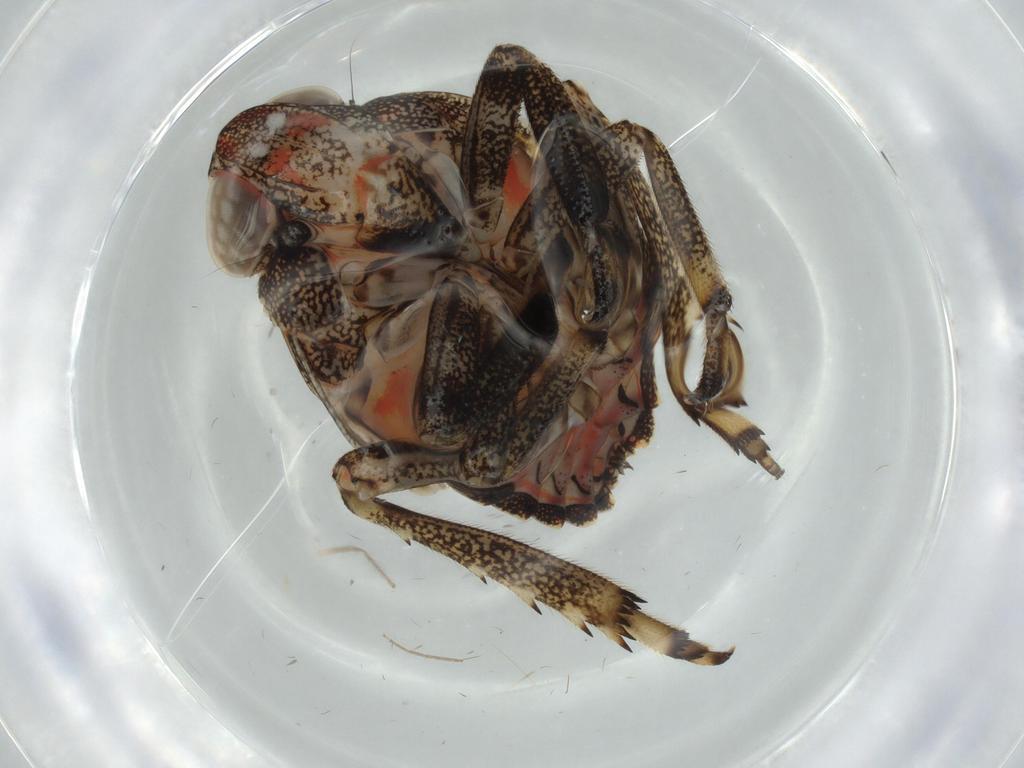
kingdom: Animalia
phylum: Arthropoda
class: Insecta
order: Hemiptera
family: Issidae
